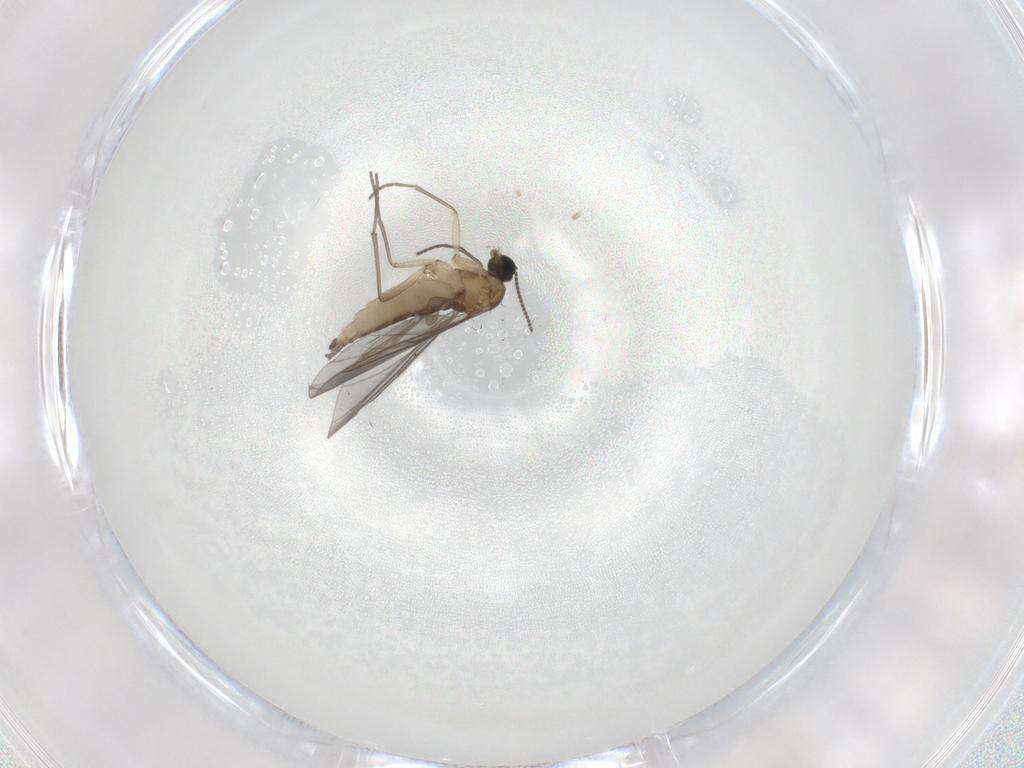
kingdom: Animalia
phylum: Arthropoda
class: Insecta
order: Diptera
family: Sciaridae
